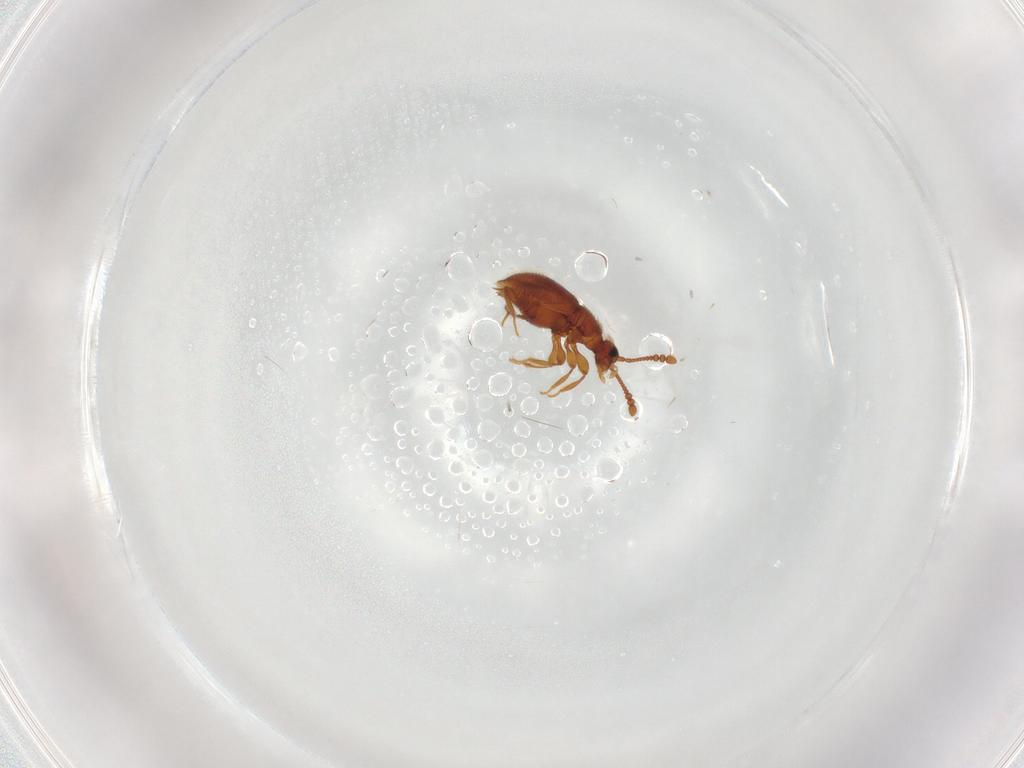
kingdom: Animalia
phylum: Arthropoda
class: Insecta
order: Coleoptera
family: Staphylinidae
